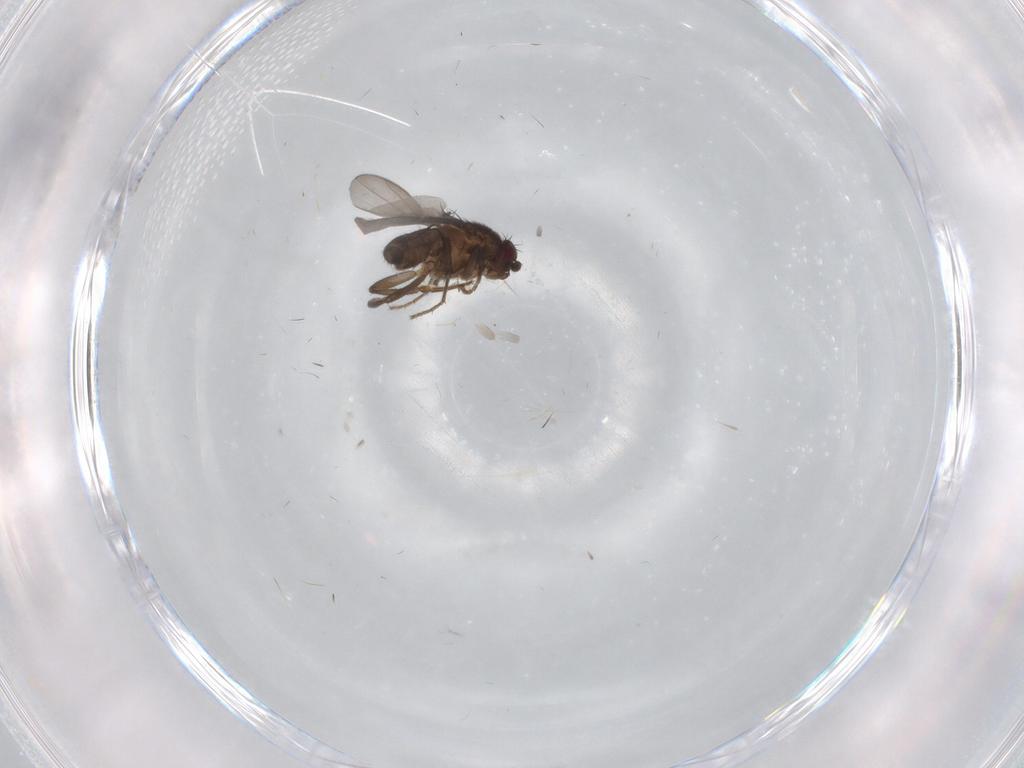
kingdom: Animalia
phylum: Arthropoda
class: Insecta
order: Diptera
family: Sphaeroceridae
